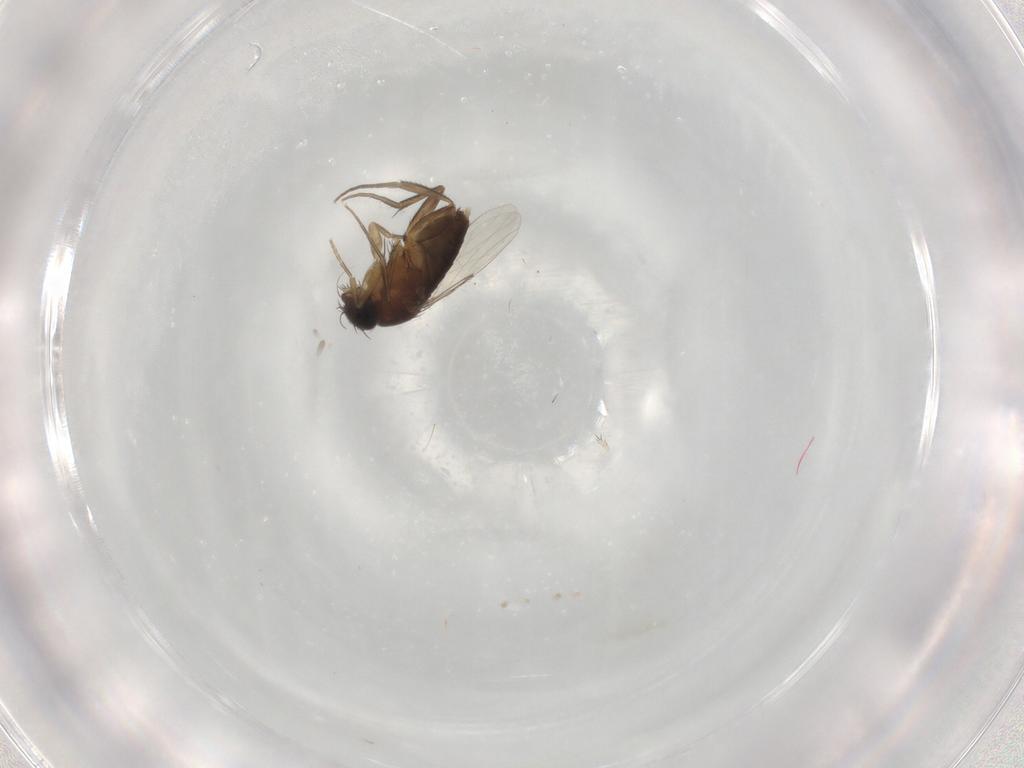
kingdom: Animalia
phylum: Arthropoda
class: Insecta
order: Diptera
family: Phoridae
